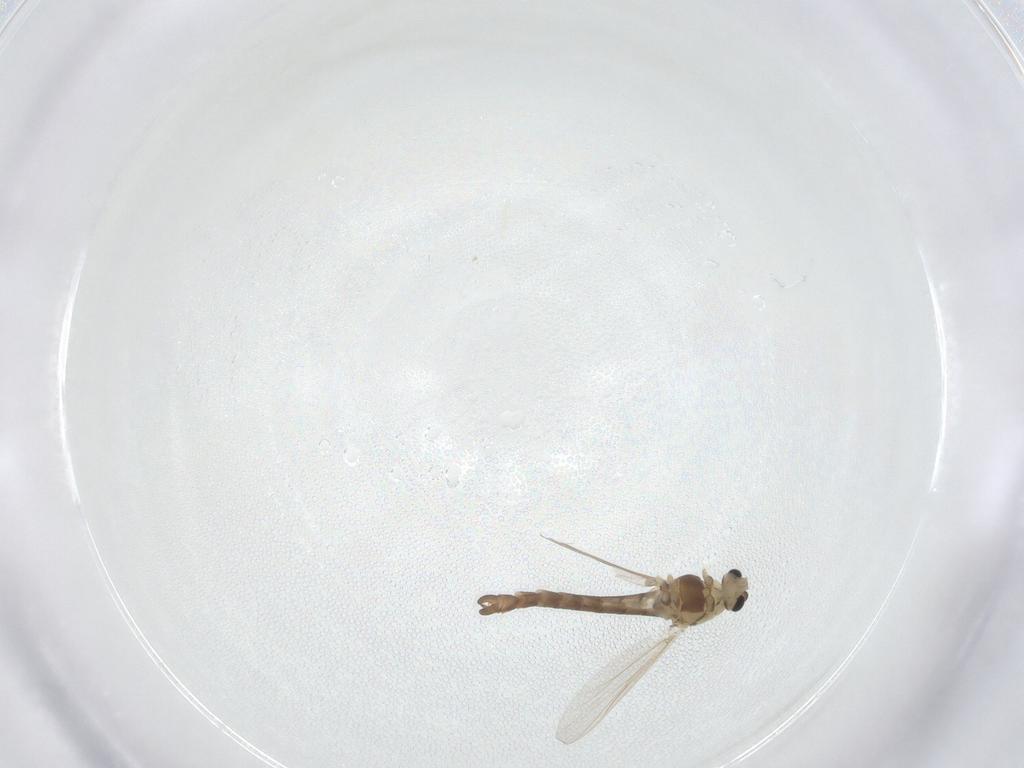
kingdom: Animalia
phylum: Arthropoda
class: Insecta
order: Diptera
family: Chironomidae
